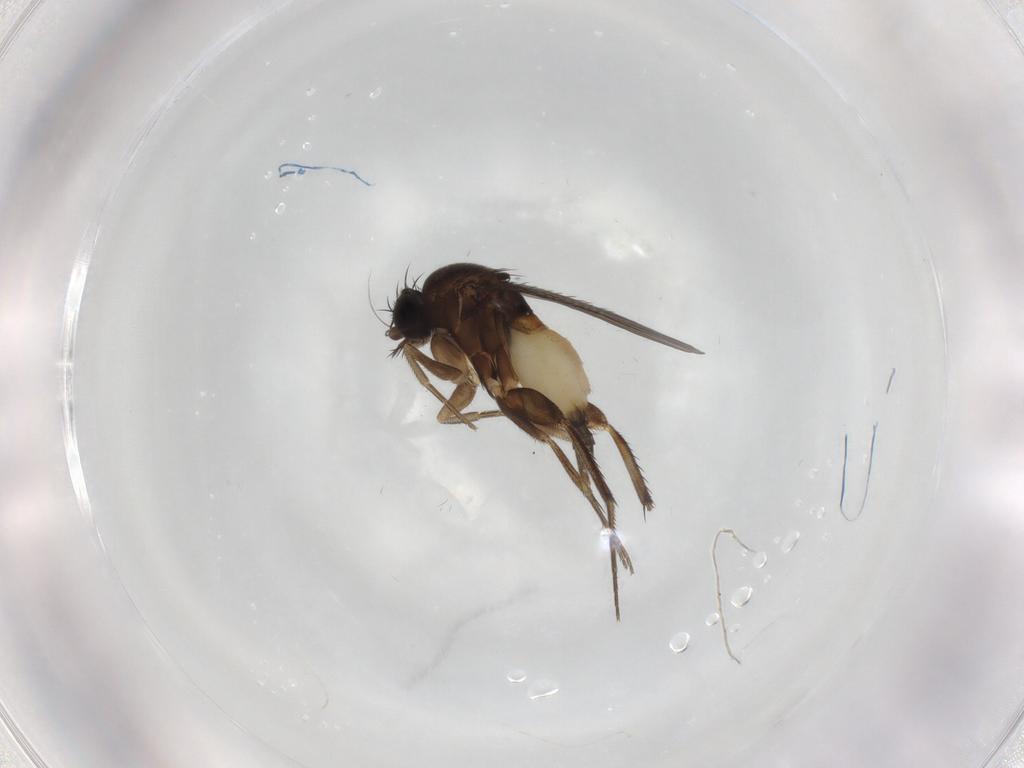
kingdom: Animalia
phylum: Arthropoda
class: Insecta
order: Diptera
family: Phoridae
